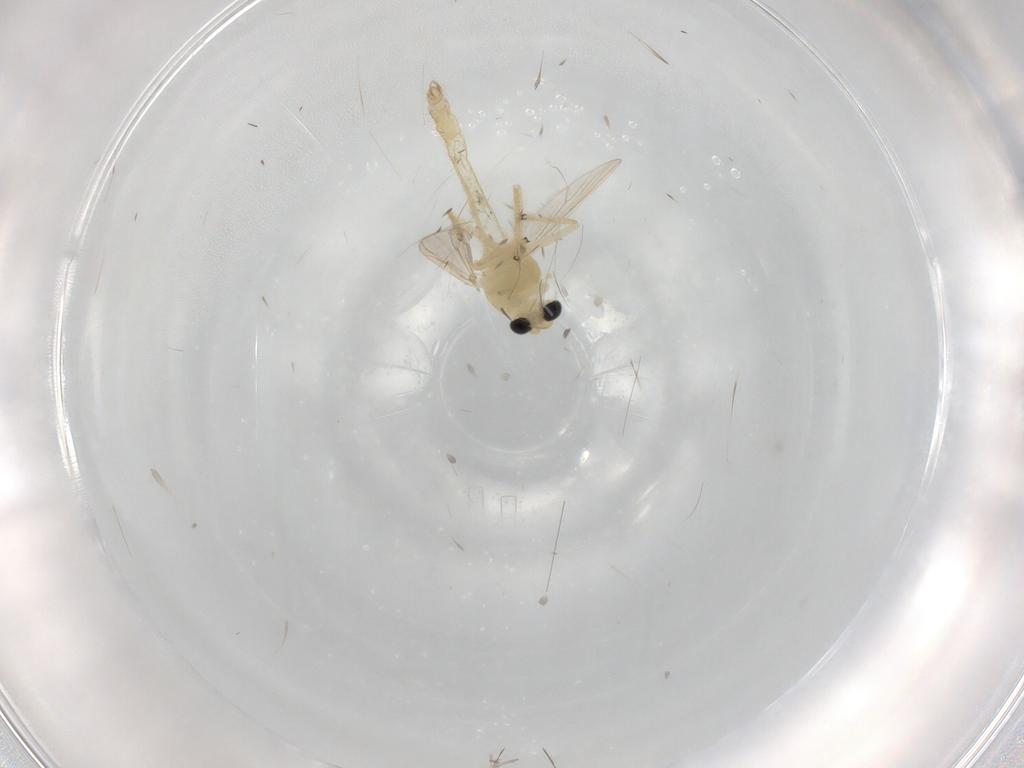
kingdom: Animalia
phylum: Arthropoda
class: Insecta
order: Diptera
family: Chironomidae
